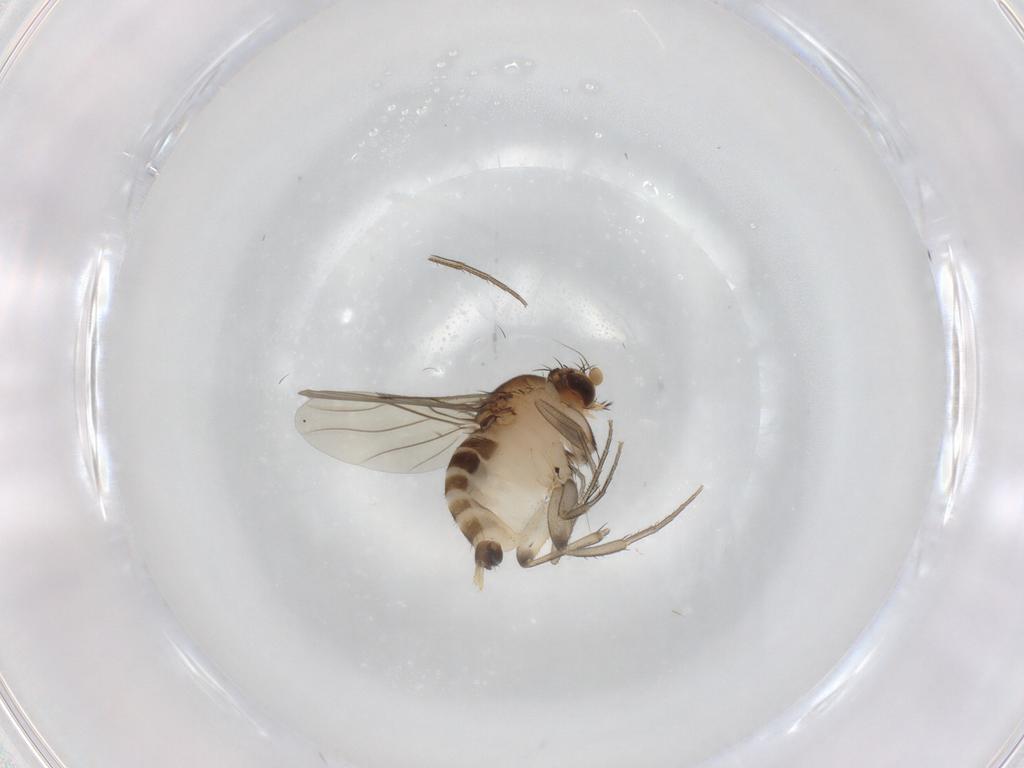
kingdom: Animalia
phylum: Arthropoda
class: Insecta
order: Diptera
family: Phoridae
